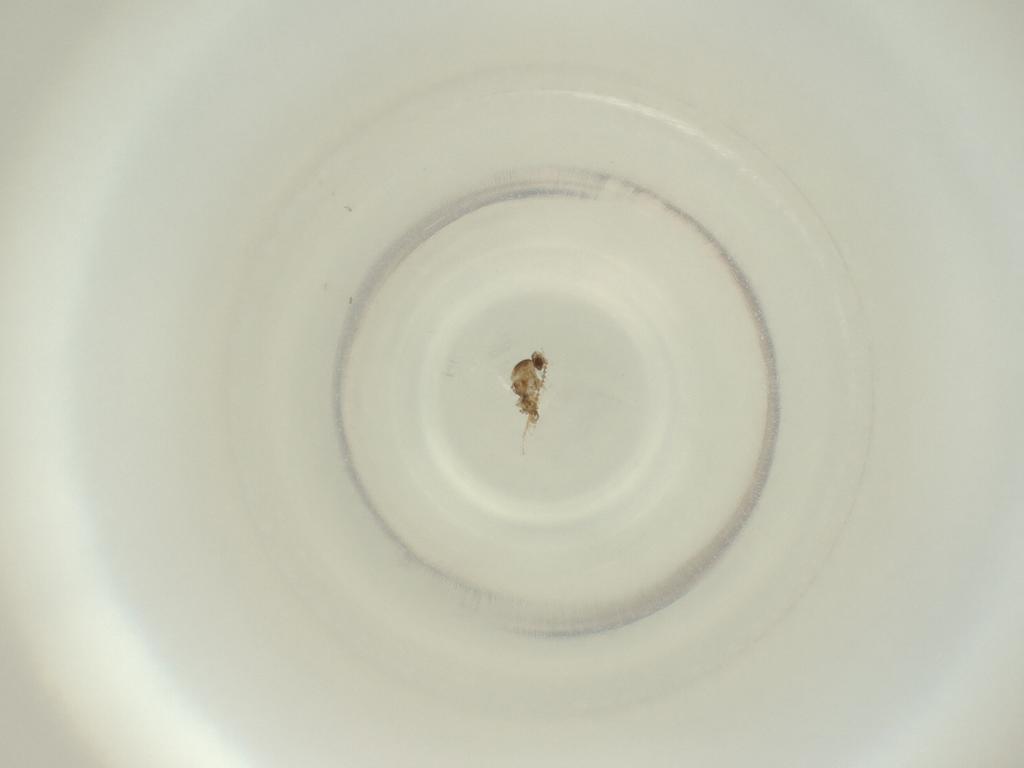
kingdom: Animalia
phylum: Arthropoda
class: Insecta
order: Diptera
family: Cecidomyiidae
